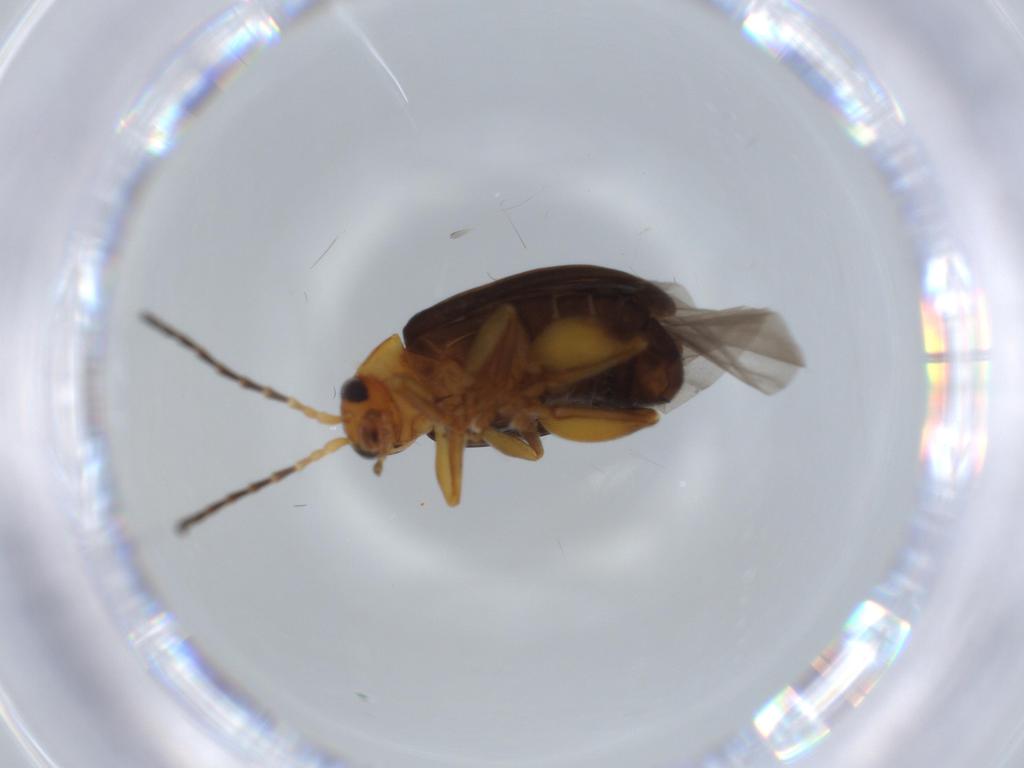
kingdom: Animalia
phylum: Arthropoda
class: Insecta
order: Coleoptera
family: Chrysomelidae
